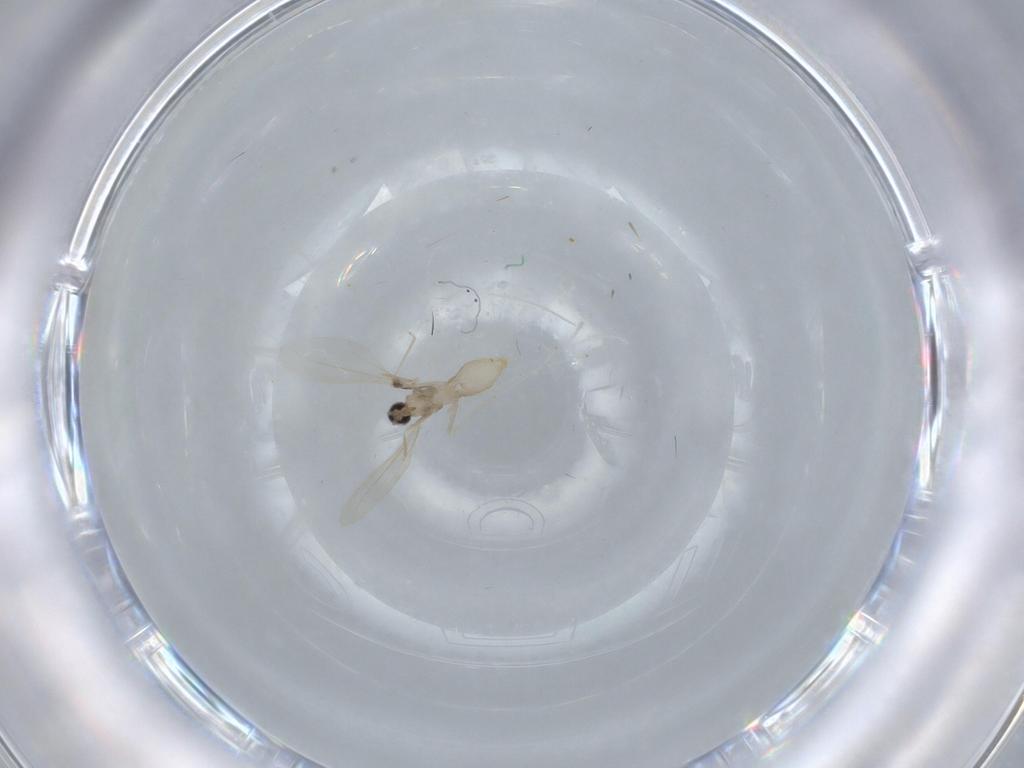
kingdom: Animalia
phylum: Arthropoda
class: Insecta
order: Diptera
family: Cecidomyiidae
